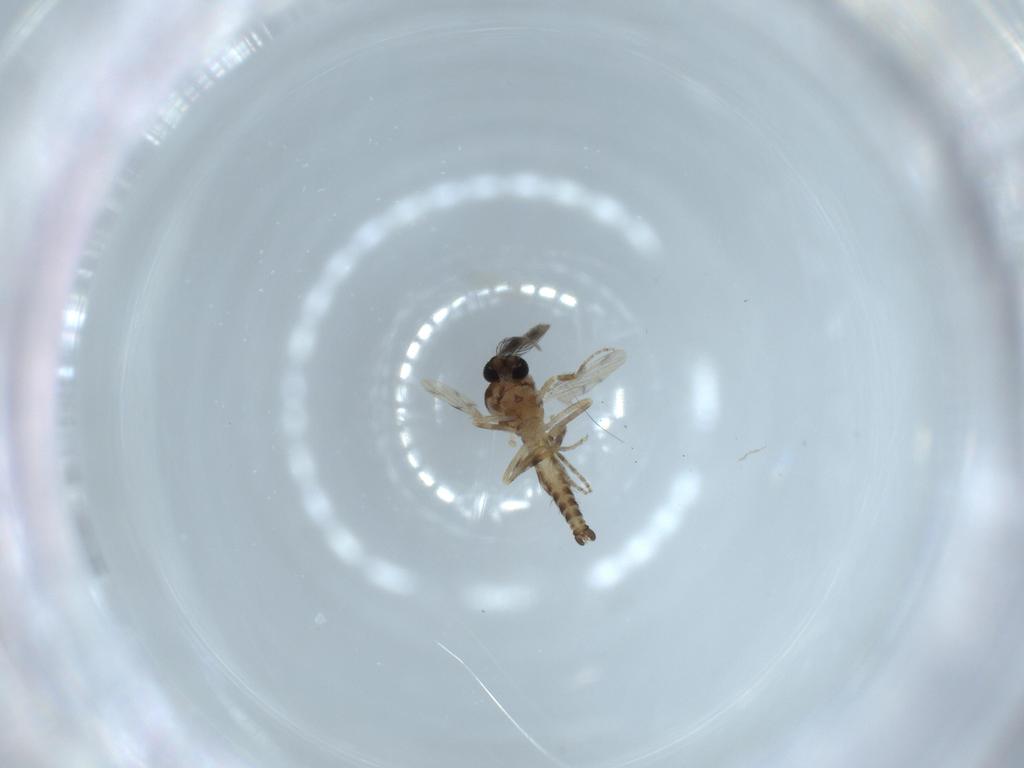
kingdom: Animalia
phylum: Arthropoda
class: Insecta
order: Diptera
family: Ceratopogonidae
